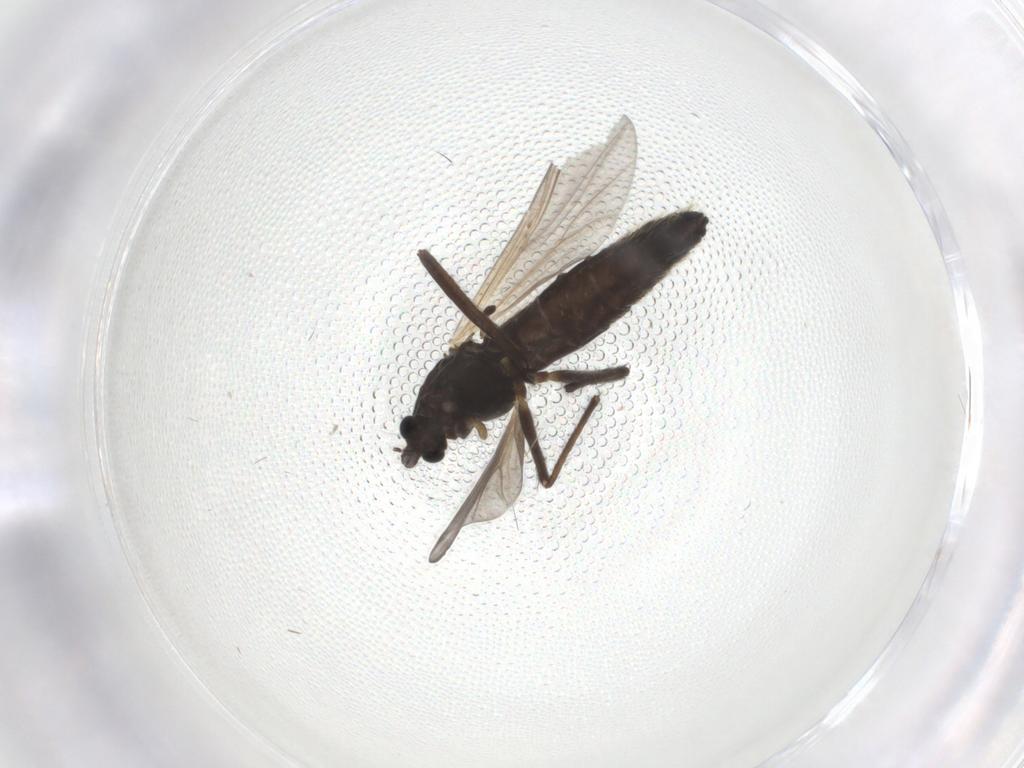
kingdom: Animalia
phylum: Arthropoda
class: Insecta
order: Diptera
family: Chironomidae
